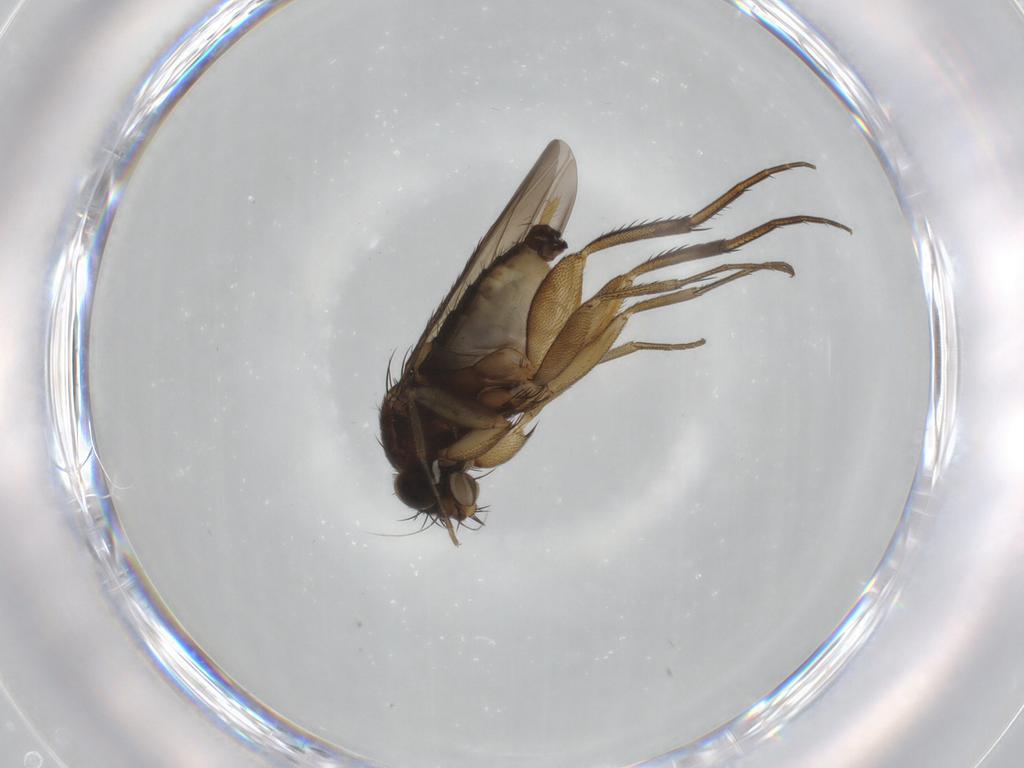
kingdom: Animalia
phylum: Arthropoda
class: Insecta
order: Diptera
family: Phoridae
